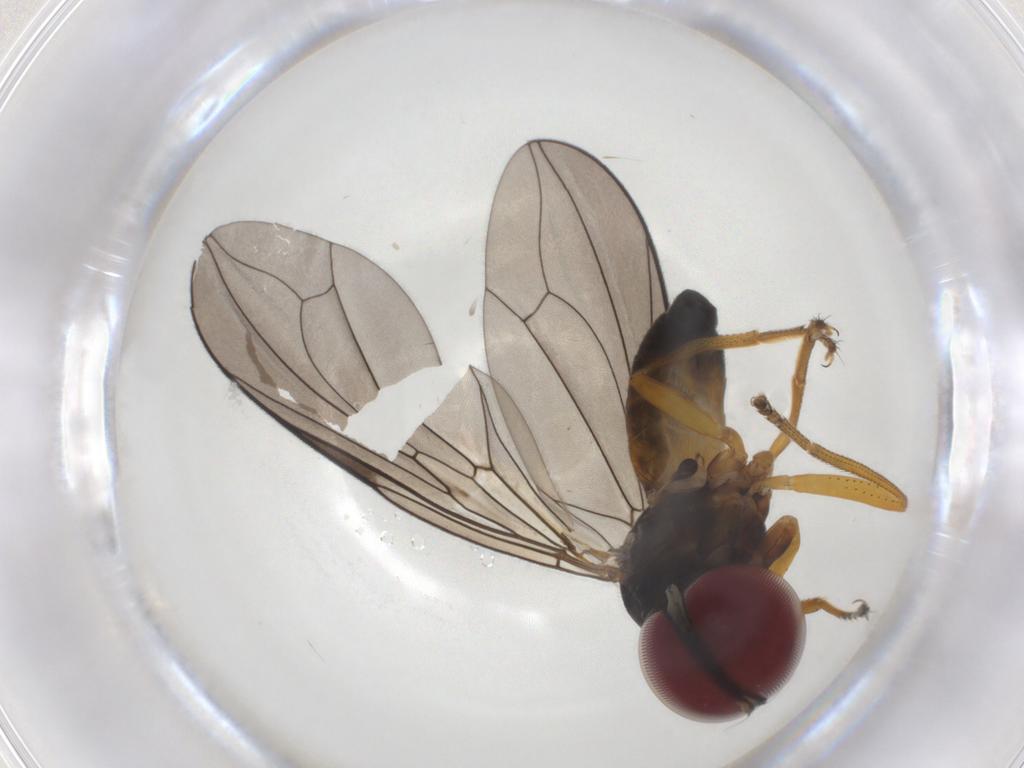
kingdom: Animalia
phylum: Arthropoda
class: Insecta
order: Diptera
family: Pipunculidae
